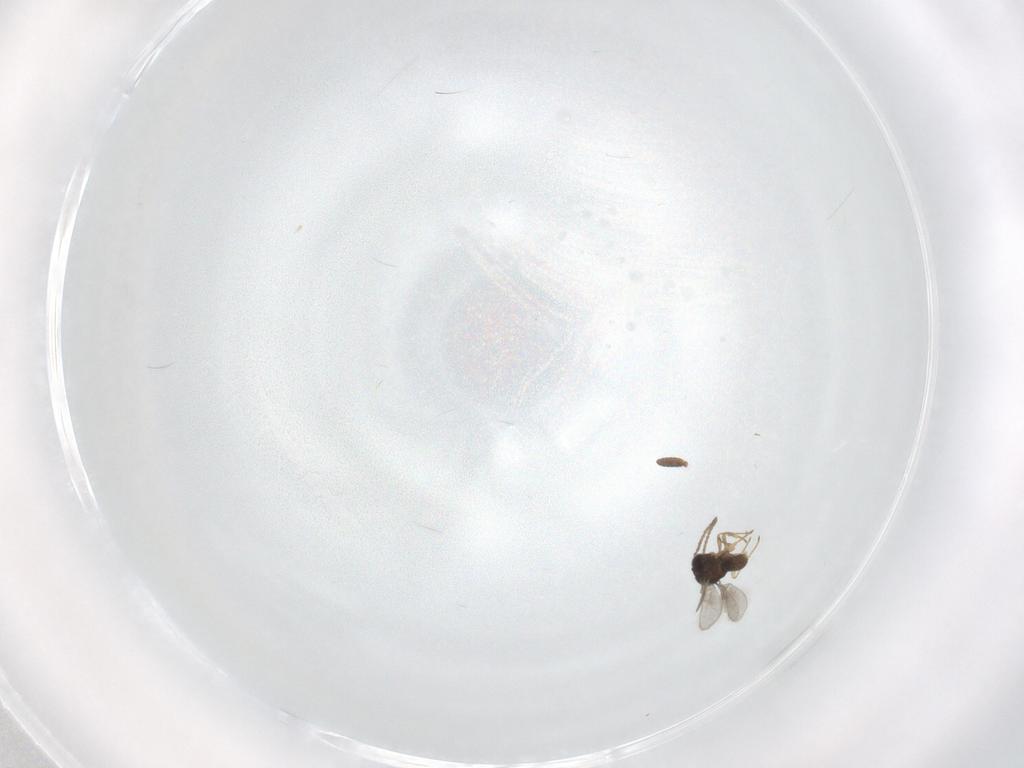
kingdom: Animalia
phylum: Arthropoda
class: Insecta
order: Hymenoptera
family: Scelionidae
